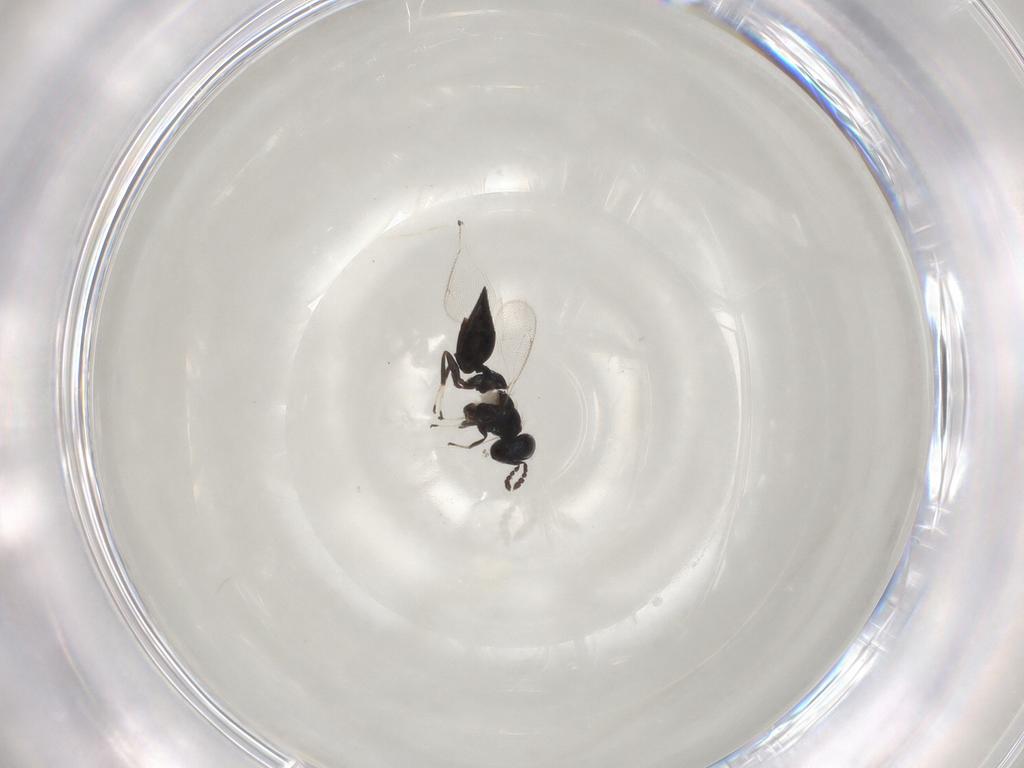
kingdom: Animalia
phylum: Arthropoda
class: Insecta
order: Hymenoptera
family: Eulophidae
